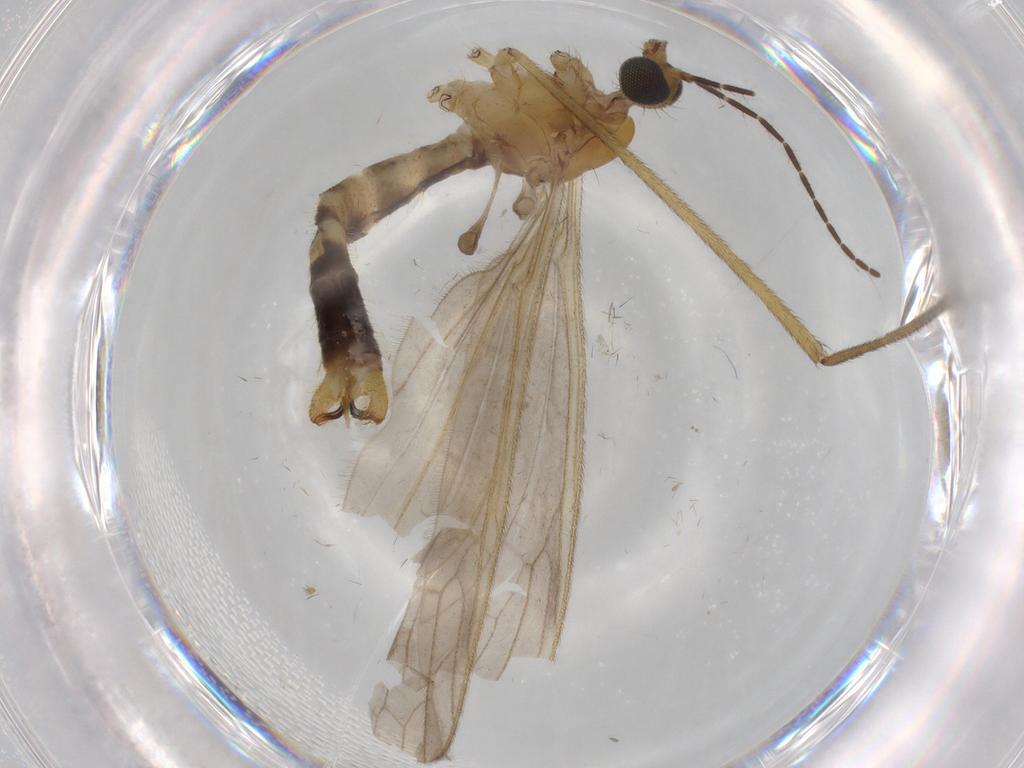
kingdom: Animalia
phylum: Arthropoda
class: Insecta
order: Diptera
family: Phoridae
